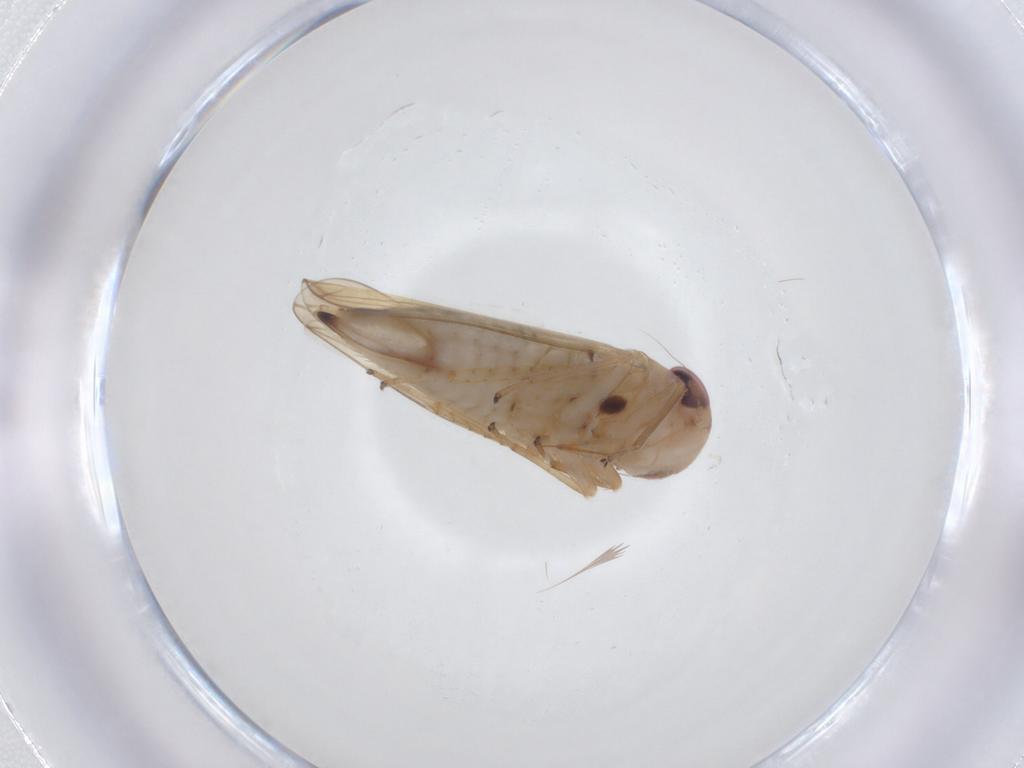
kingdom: Animalia
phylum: Arthropoda
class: Insecta
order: Hemiptera
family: Cicadellidae
